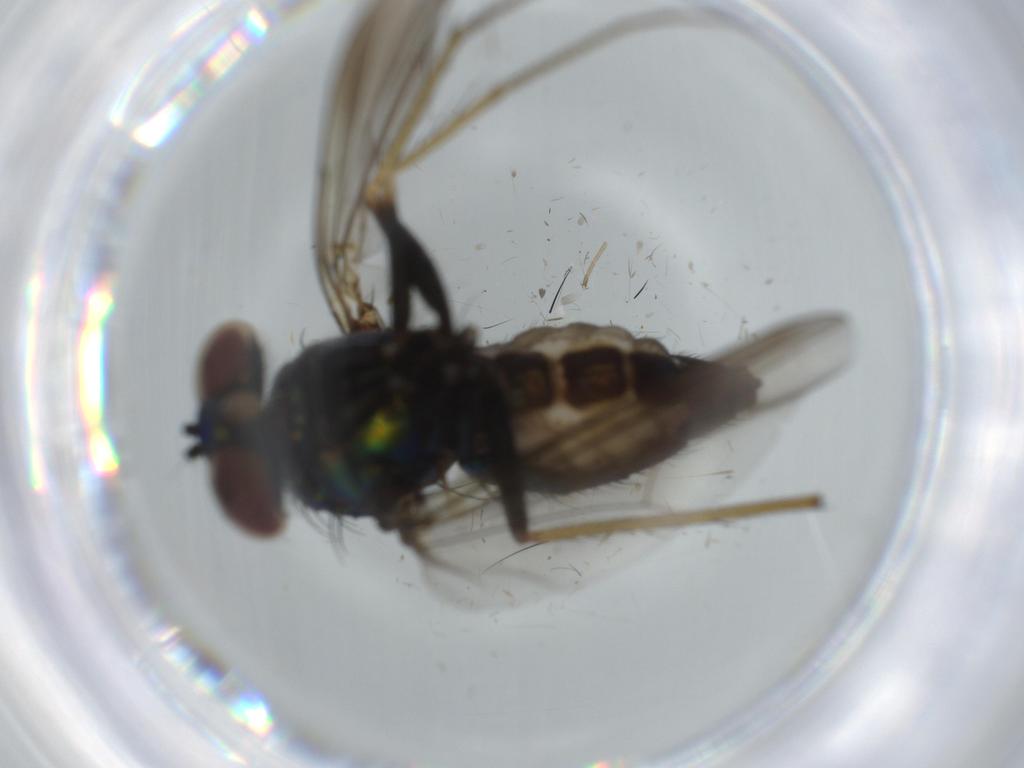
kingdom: Animalia
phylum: Arthropoda
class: Insecta
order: Diptera
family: Dolichopodidae
